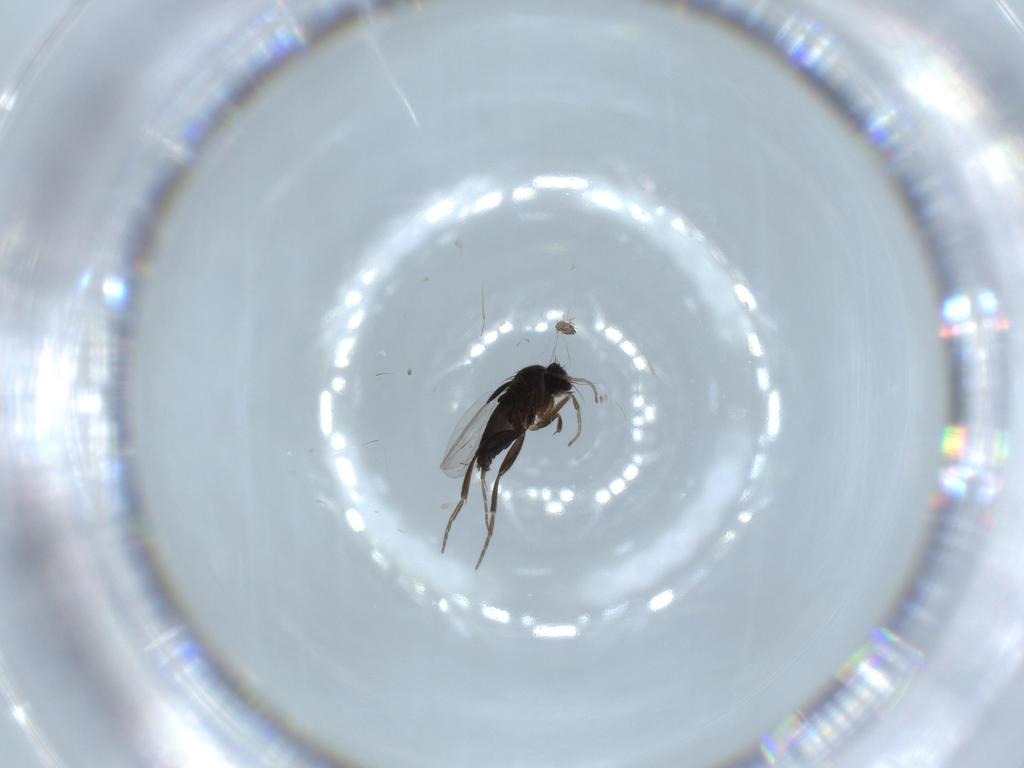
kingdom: Animalia
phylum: Arthropoda
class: Insecta
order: Diptera
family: Phoridae
